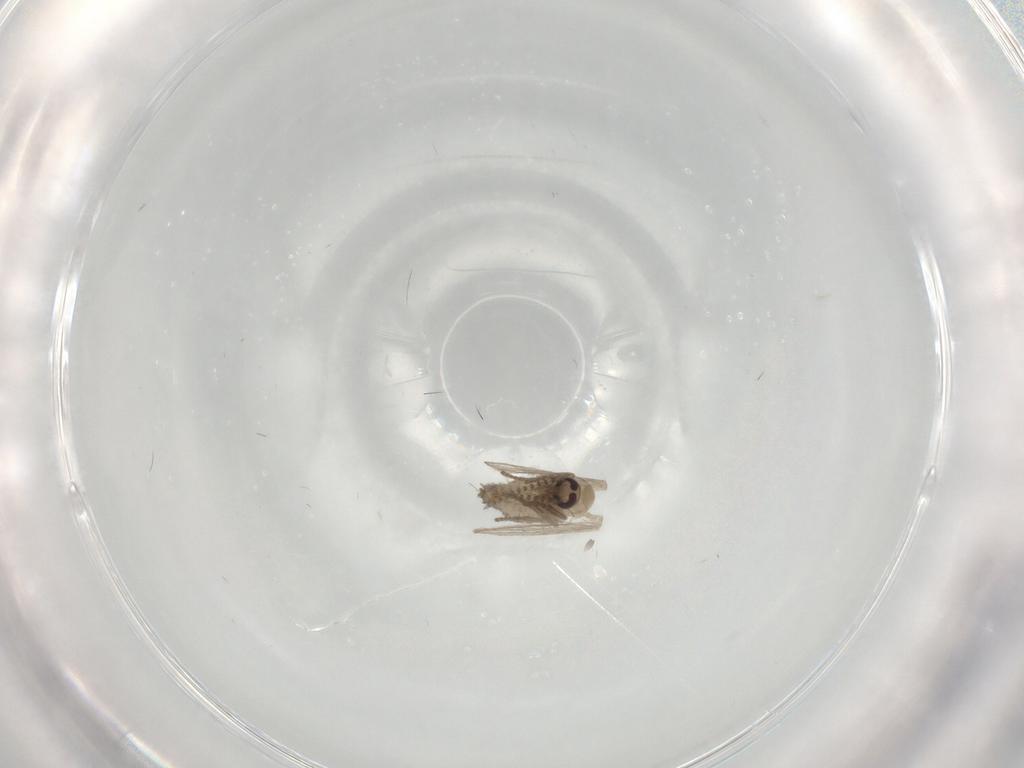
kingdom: Animalia
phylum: Arthropoda
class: Insecta
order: Diptera
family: Psychodidae
